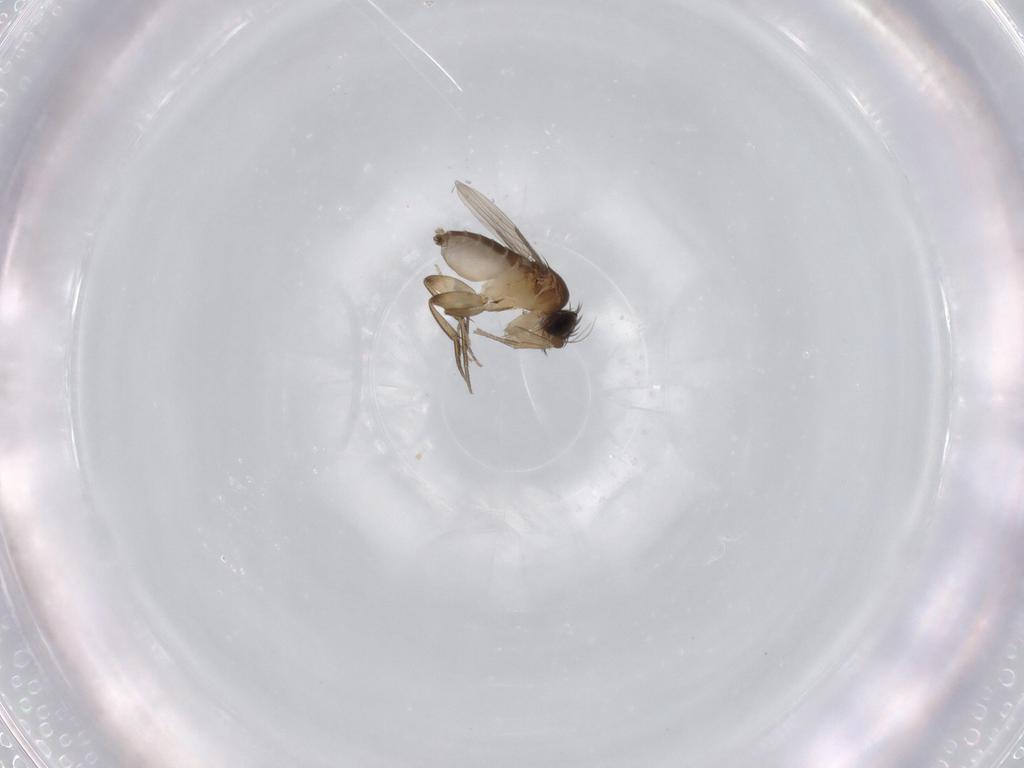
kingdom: Animalia
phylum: Arthropoda
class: Insecta
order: Diptera
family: Phoridae
